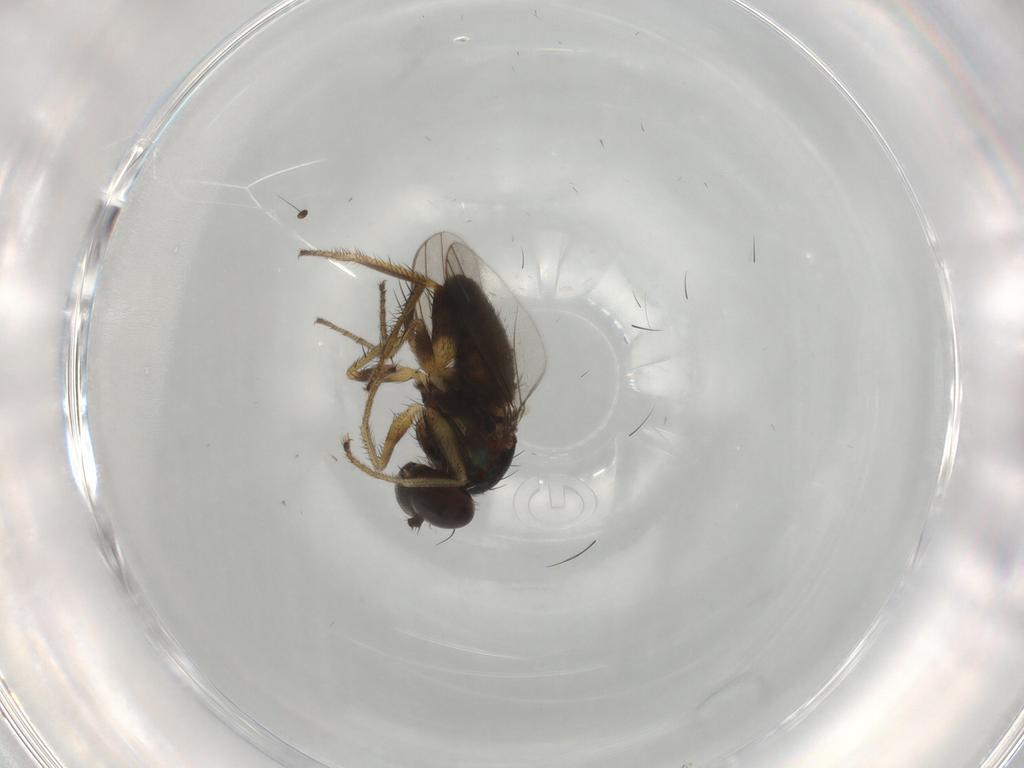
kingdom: Animalia
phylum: Arthropoda
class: Insecta
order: Diptera
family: Dolichopodidae
